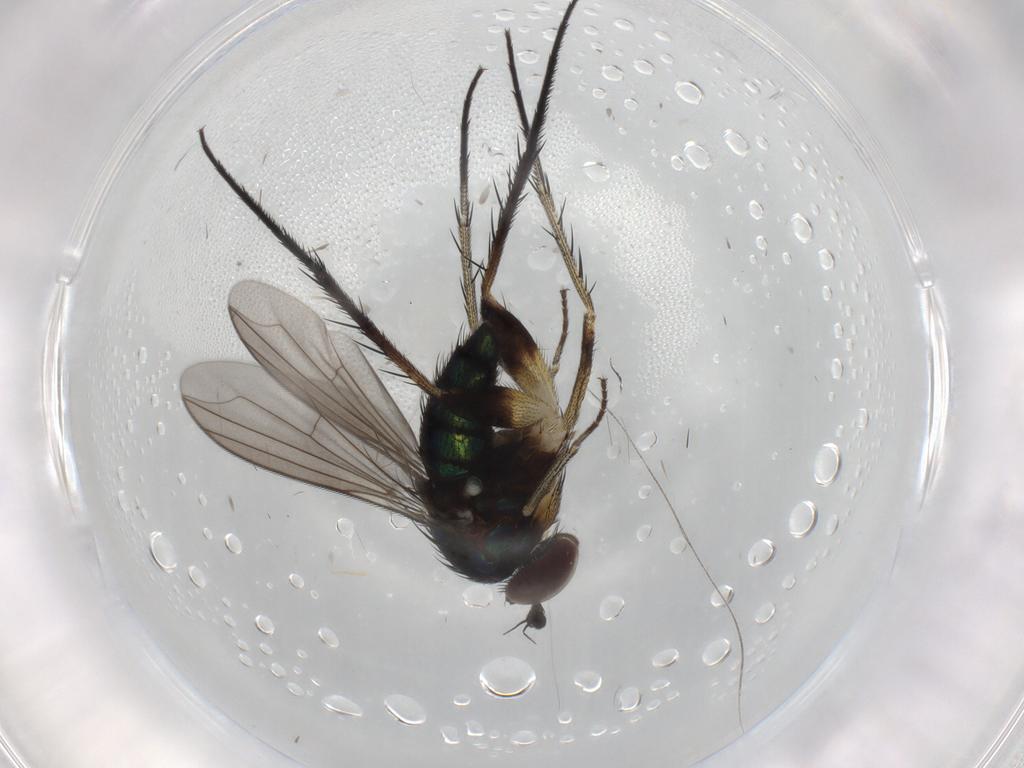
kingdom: Animalia
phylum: Arthropoda
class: Insecta
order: Diptera
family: Dolichopodidae
